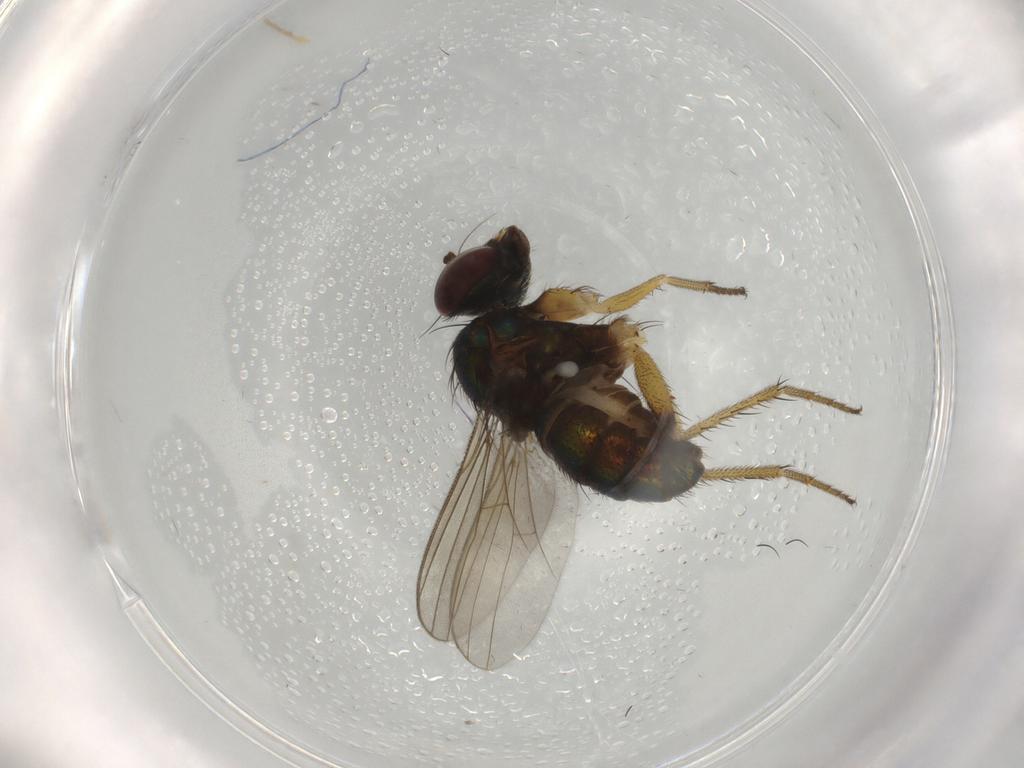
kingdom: Animalia
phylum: Arthropoda
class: Insecta
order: Diptera
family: Dolichopodidae
